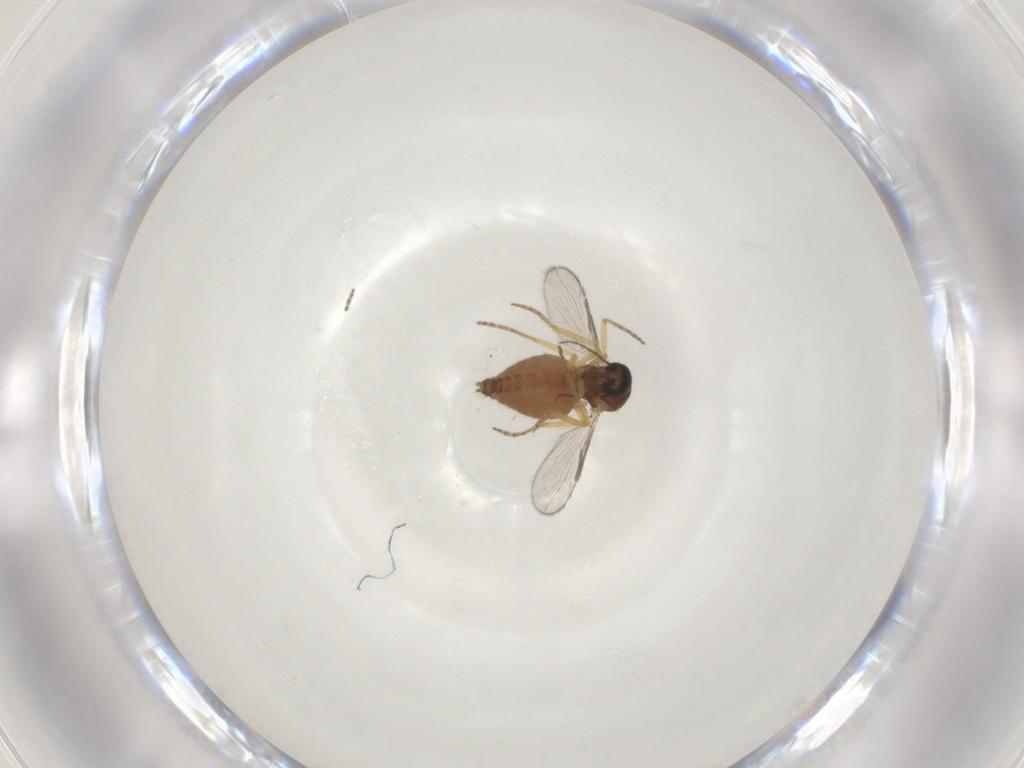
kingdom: Animalia
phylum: Arthropoda
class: Insecta
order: Diptera
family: Ceratopogonidae
